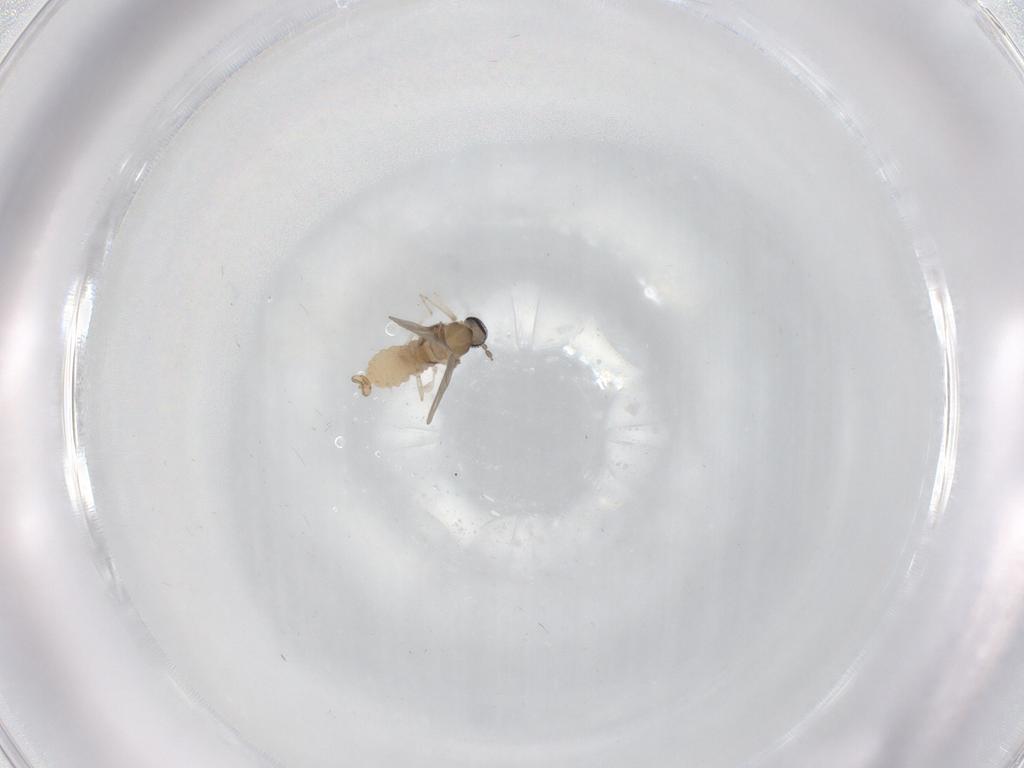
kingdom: Animalia
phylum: Arthropoda
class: Insecta
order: Diptera
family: Cecidomyiidae
